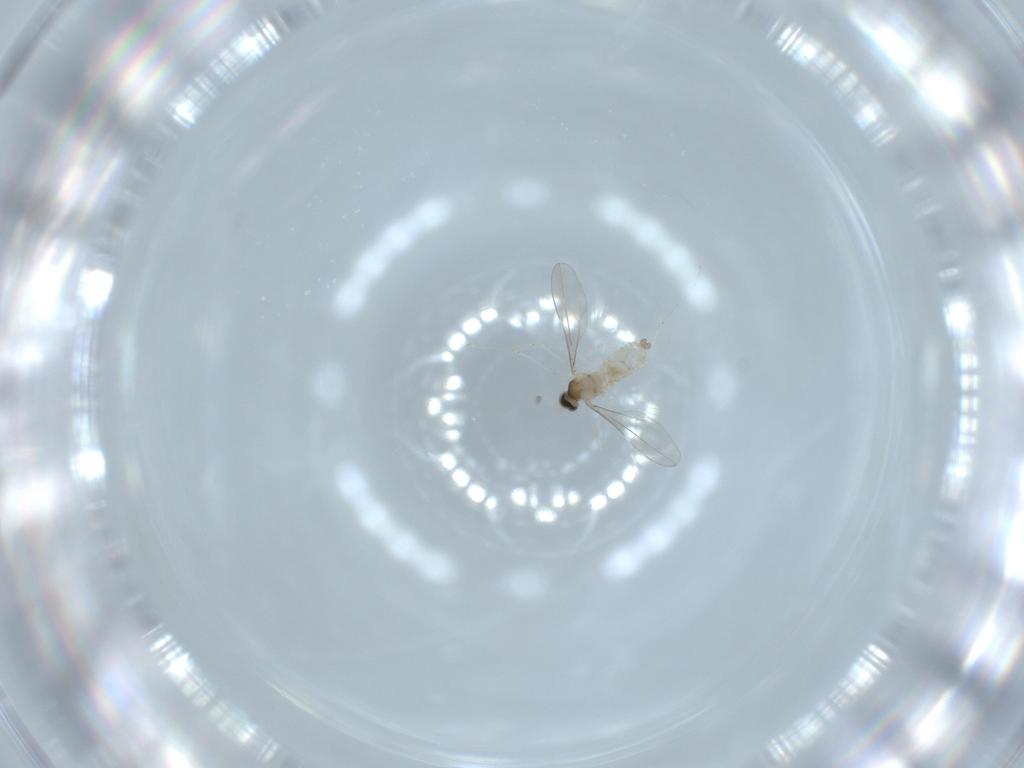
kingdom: Animalia
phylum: Arthropoda
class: Insecta
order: Diptera
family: Cecidomyiidae
